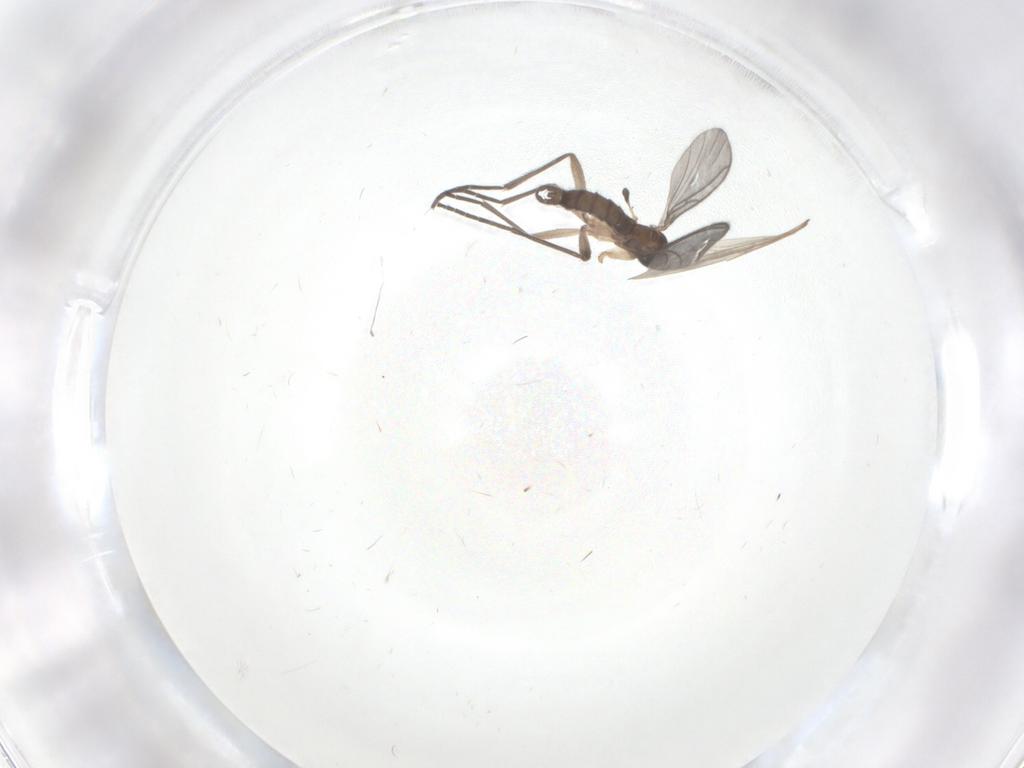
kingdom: Animalia
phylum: Arthropoda
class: Insecta
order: Diptera
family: Cecidomyiidae
